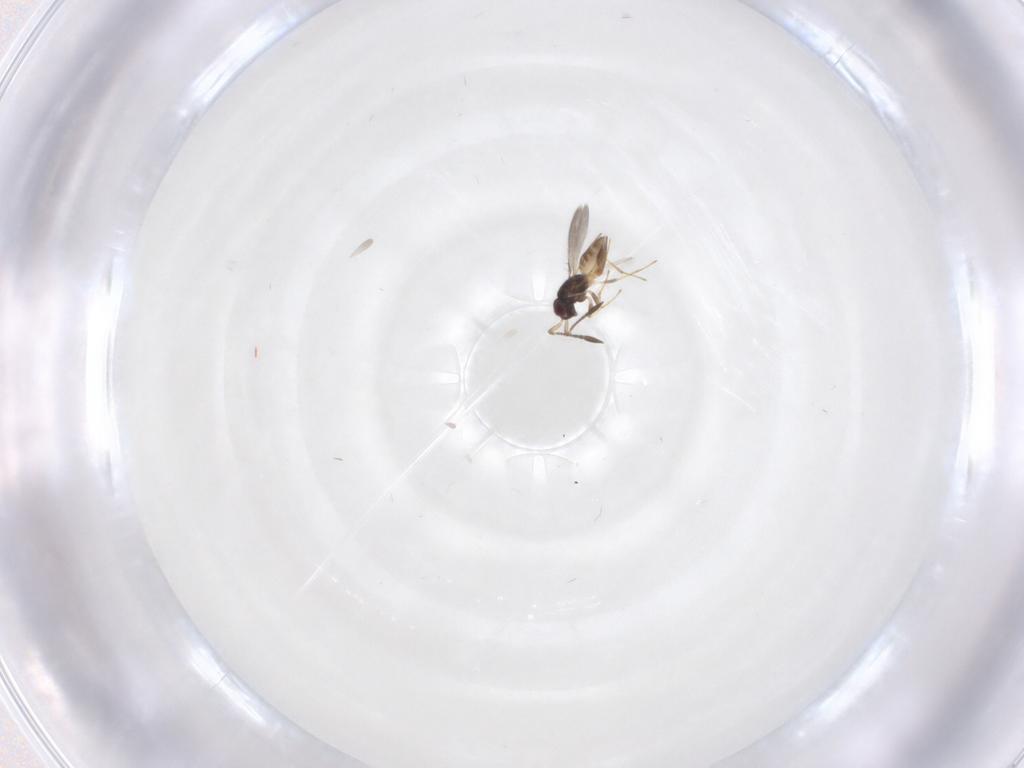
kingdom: Animalia
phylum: Arthropoda
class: Insecta
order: Hymenoptera
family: Mymaridae
